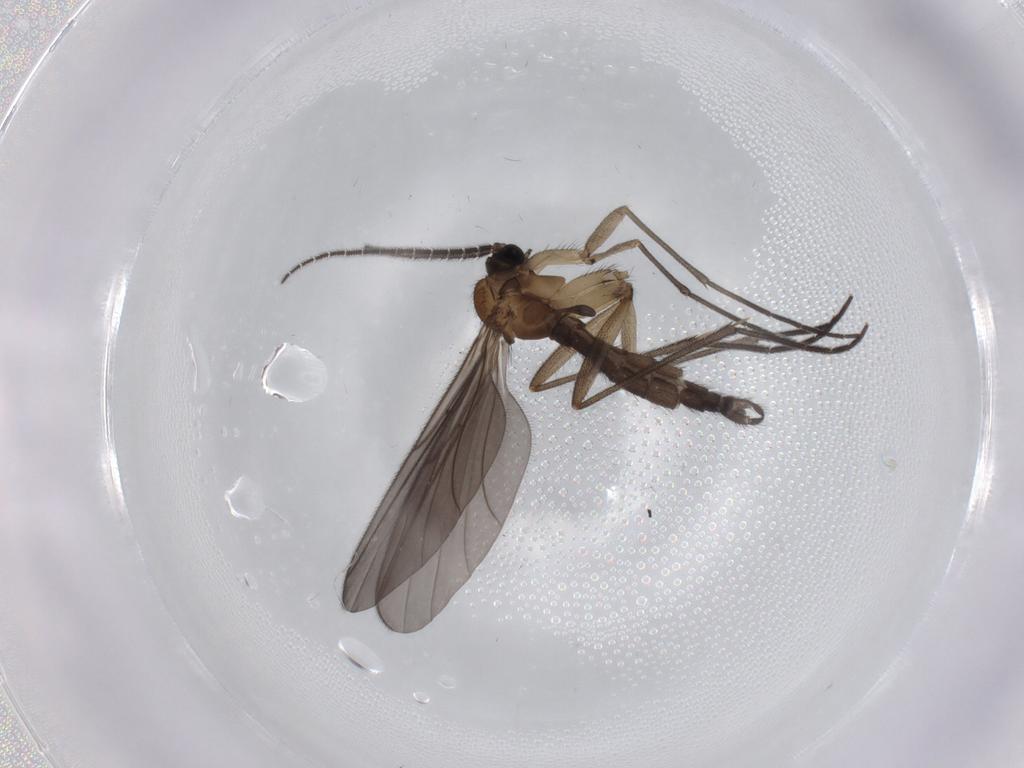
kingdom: Animalia
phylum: Arthropoda
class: Insecta
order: Diptera
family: Sciaridae
